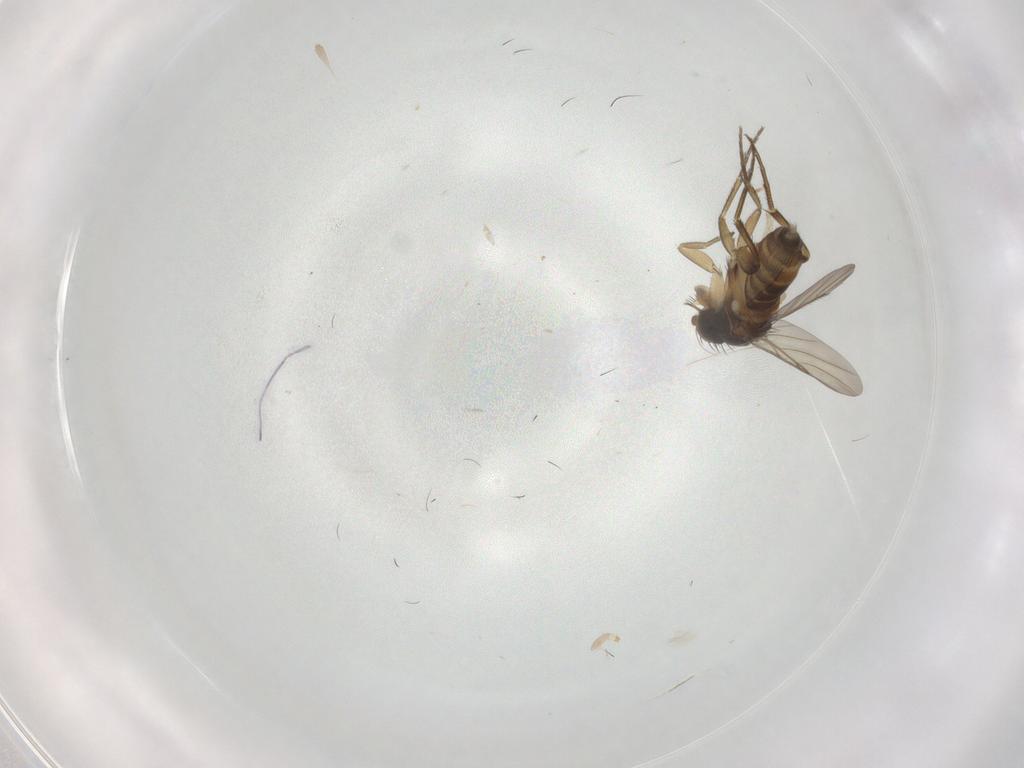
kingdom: Animalia
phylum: Arthropoda
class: Insecta
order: Diptera
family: Phoridae
